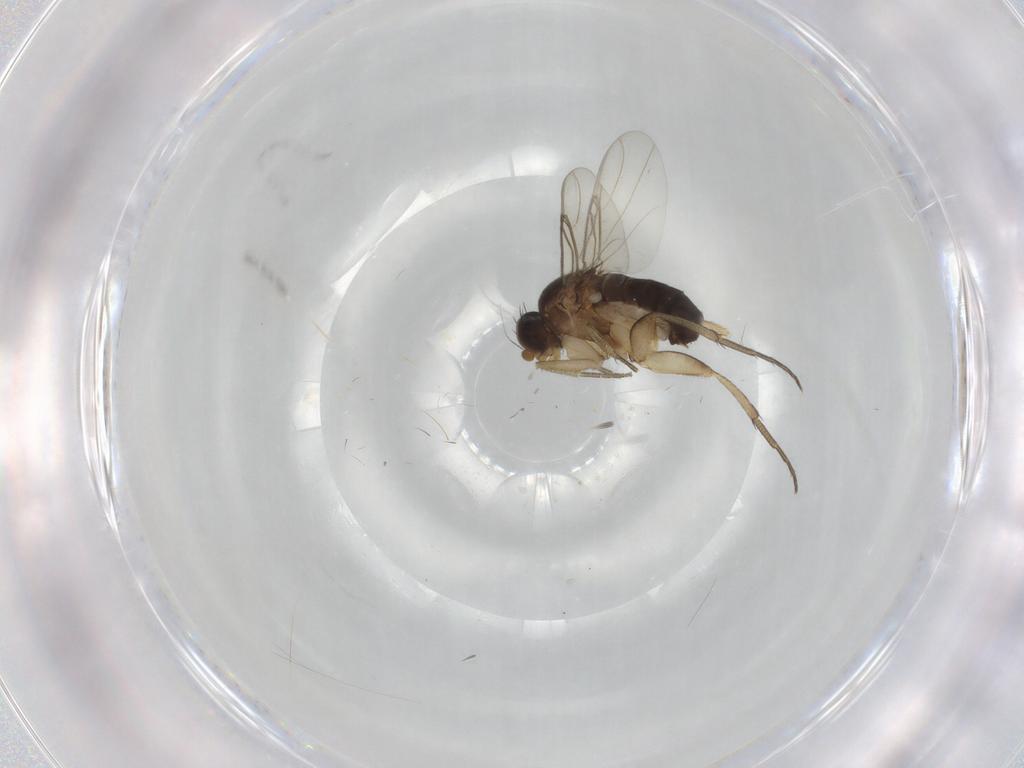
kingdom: Animalia
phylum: Arthropoda
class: Insecta
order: Diptera
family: Phoridae
